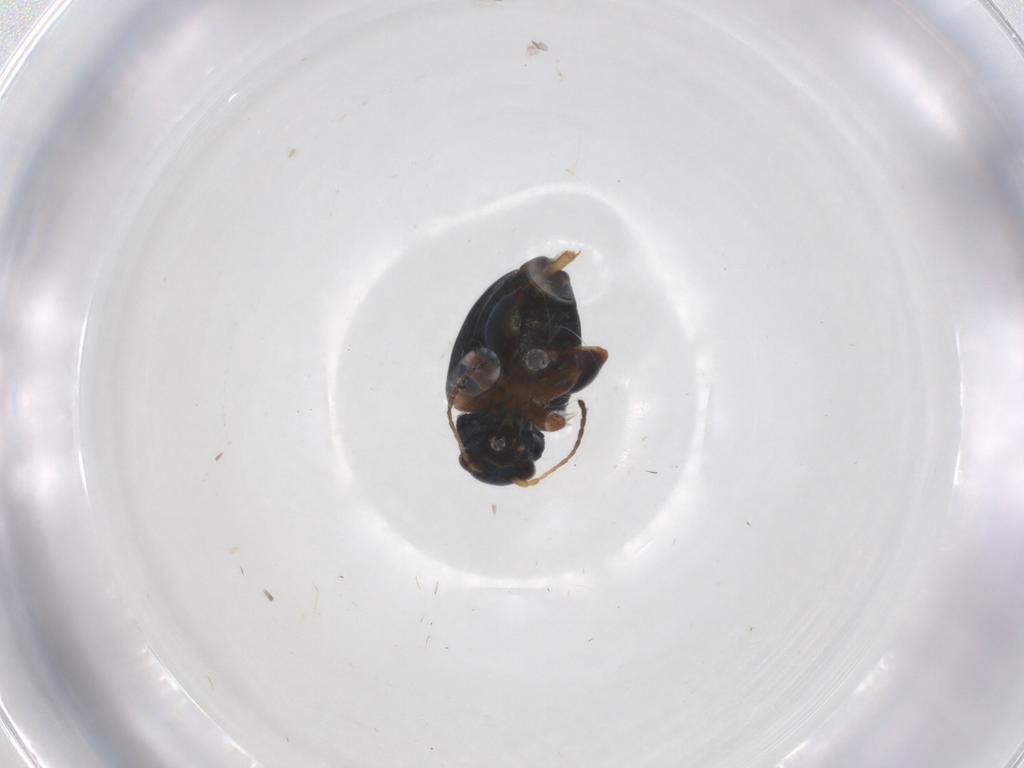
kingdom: Animalia
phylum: Arthropoda
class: Insecta
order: Coleoptera
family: Chrysomelidae
